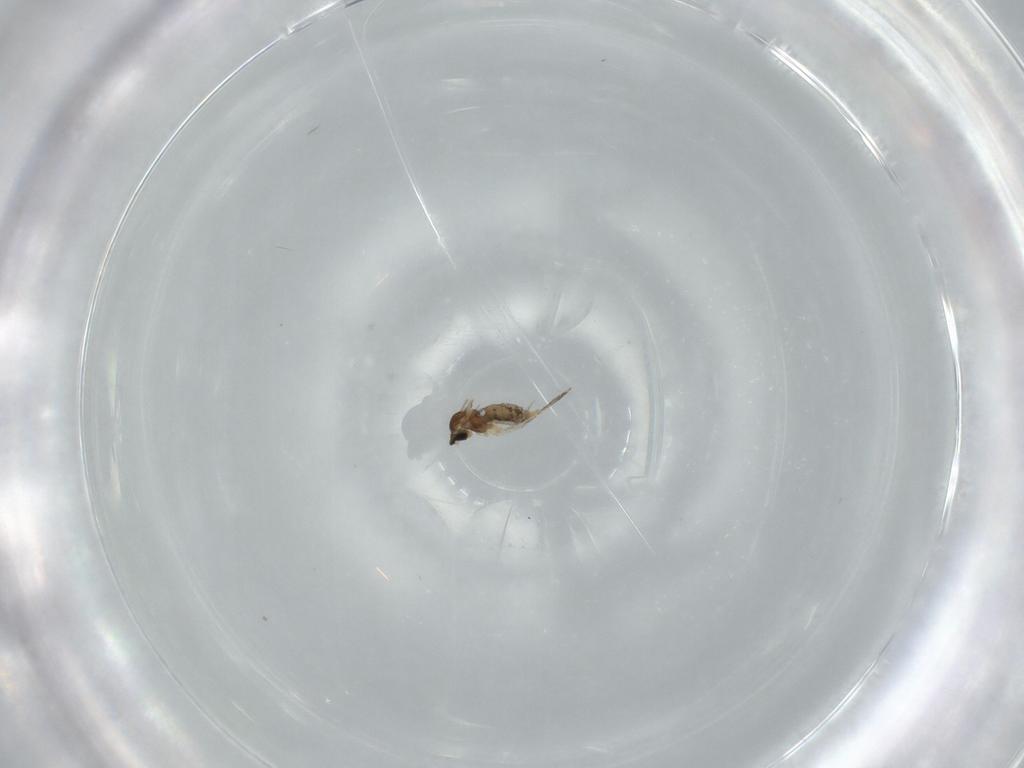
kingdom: Animalia
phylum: Arthropoda
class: Insecta
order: Diptera
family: Cecidomyiidae
